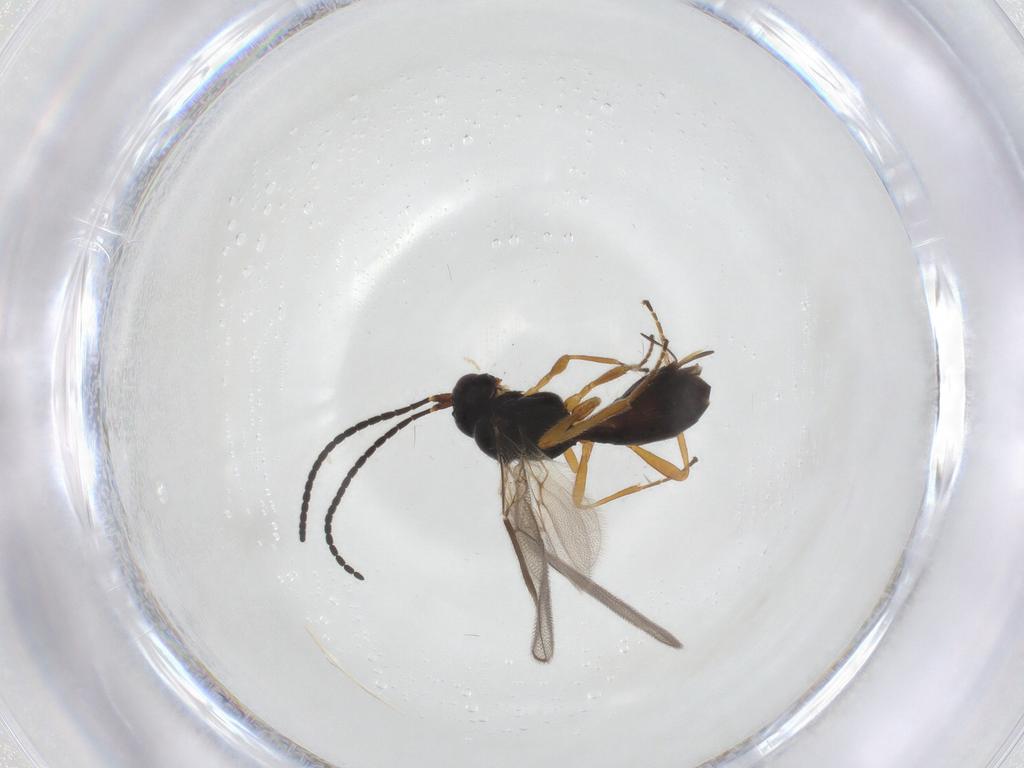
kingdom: Animalia
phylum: Arthropoda
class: Insecta
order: Hymenoptera
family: Braconidae
